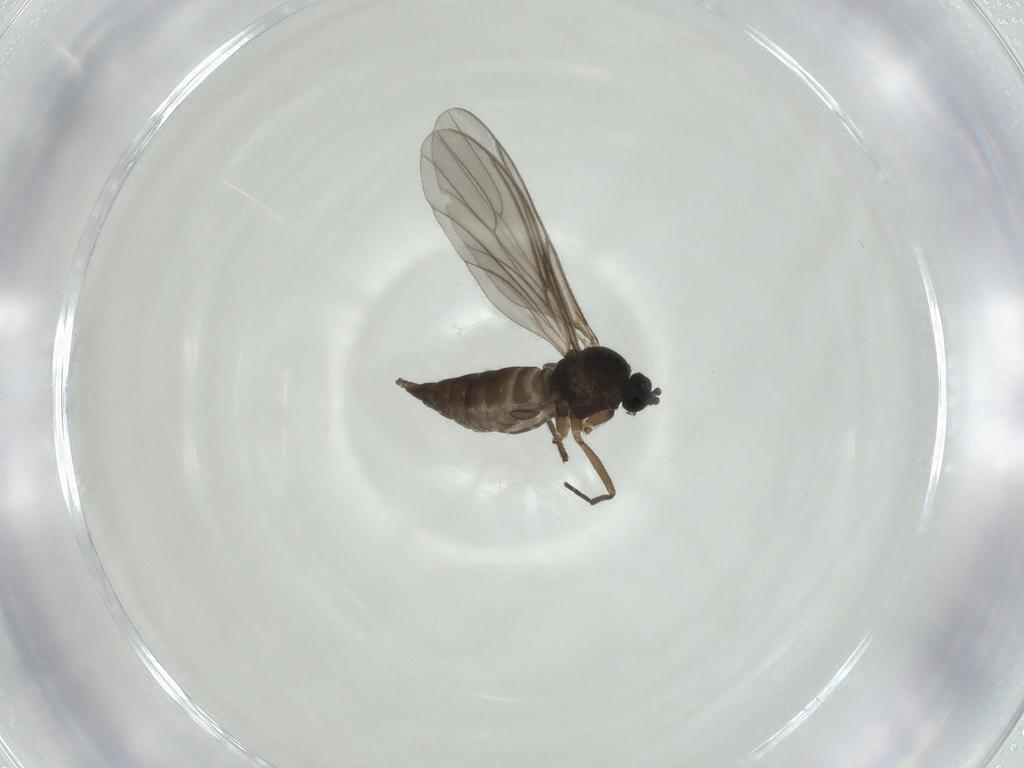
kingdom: Animalia
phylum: Arthropoda
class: Insecta
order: Diptera
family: Sciaridae
